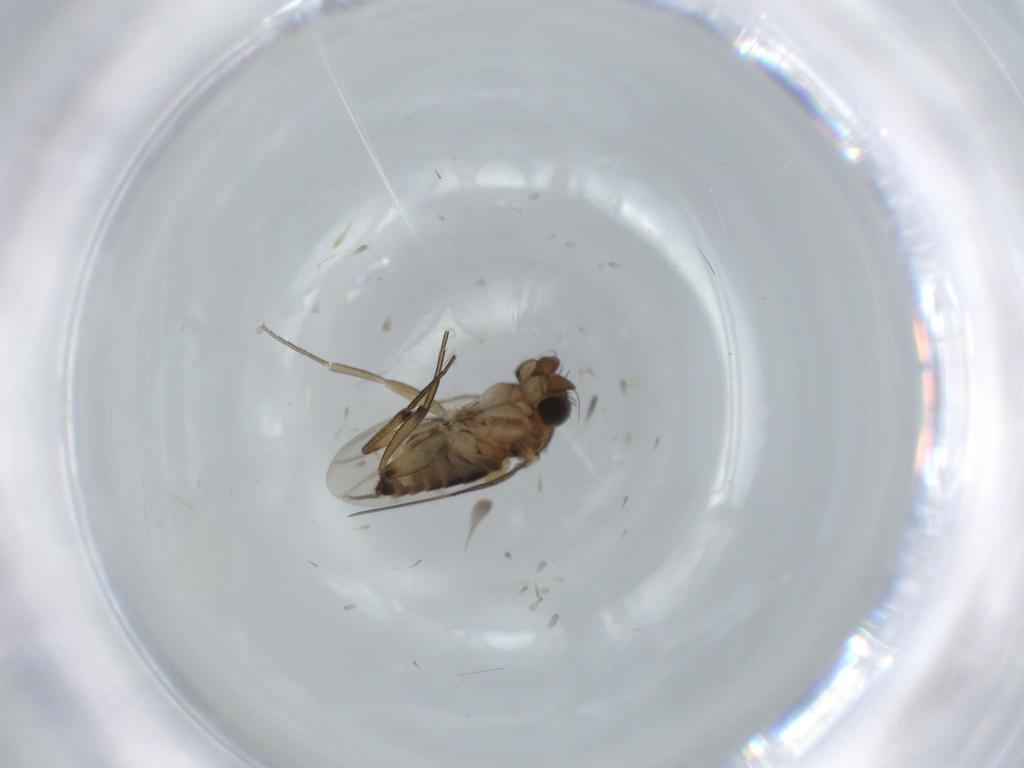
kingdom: Animalia
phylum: Arthropoda
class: Insecta
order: Diptera
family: Phoridae
